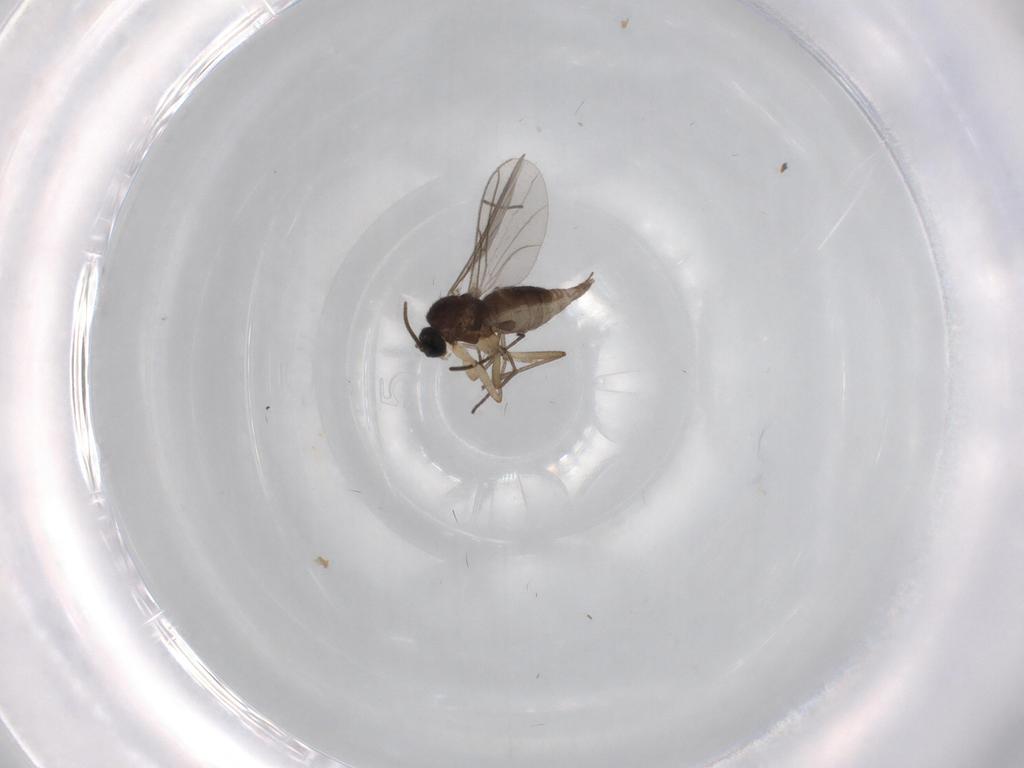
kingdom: Animalia
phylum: Arthropoda
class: Insecta
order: Diptera
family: Sciaridae
